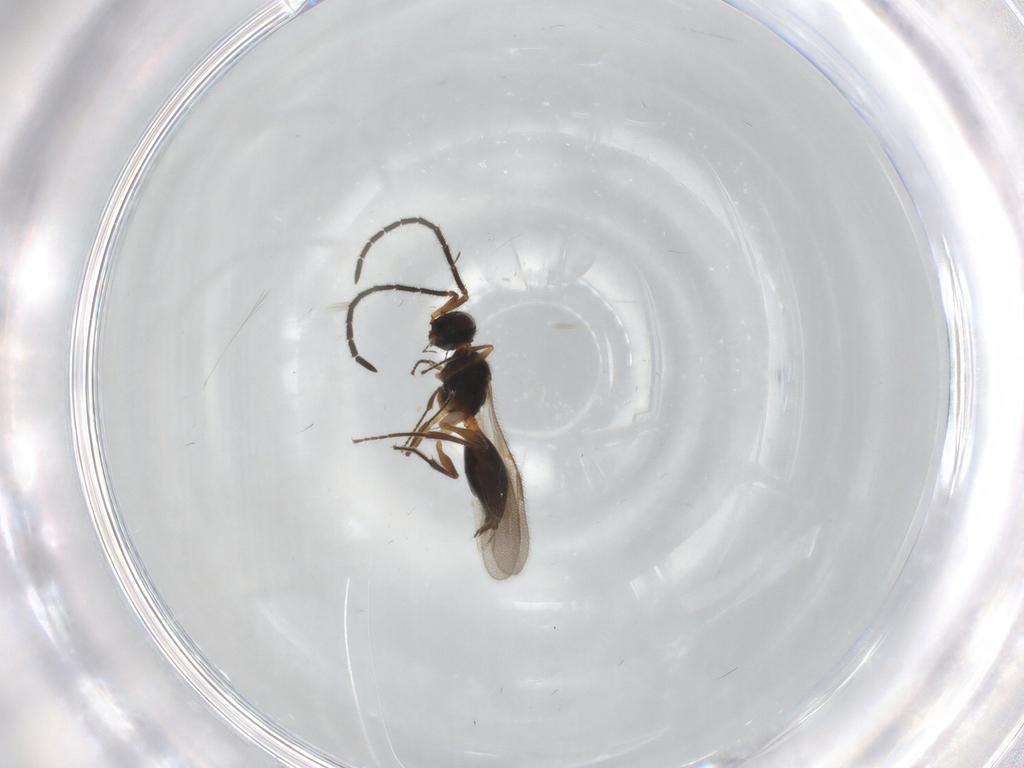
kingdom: Animalia
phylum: Arthropoda
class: Insecta
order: Hymenoptera
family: Megaspilidae
